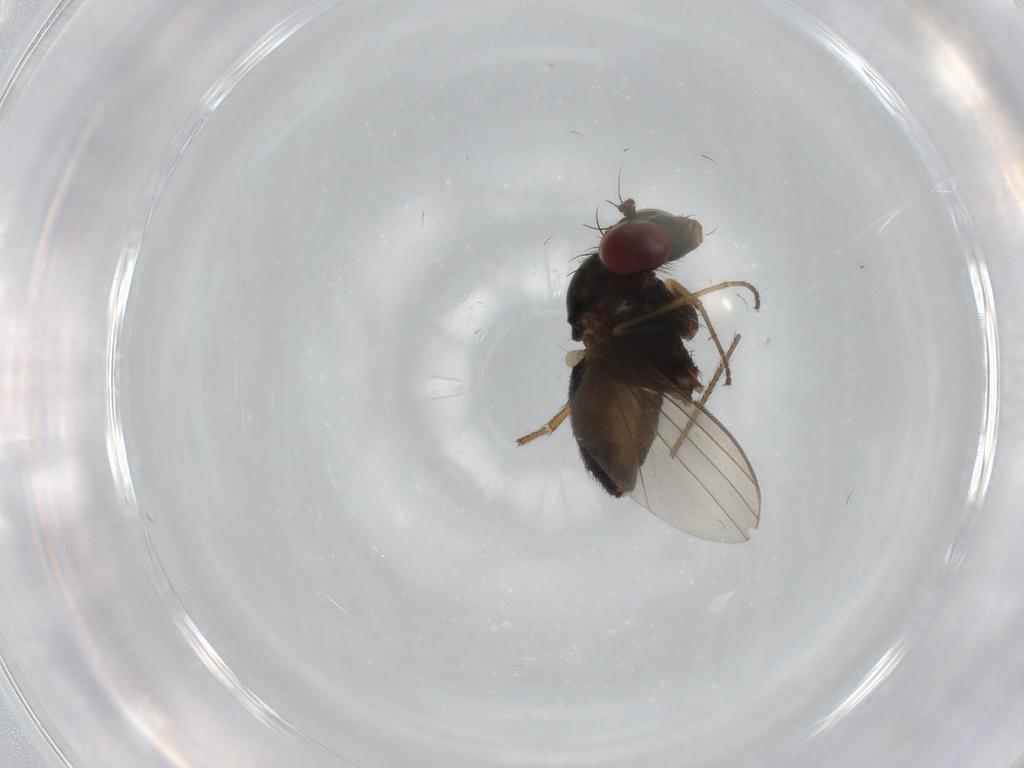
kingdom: Animalia
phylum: Arthropoda
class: Insecta
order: Diptera
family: Dolichopodidae
